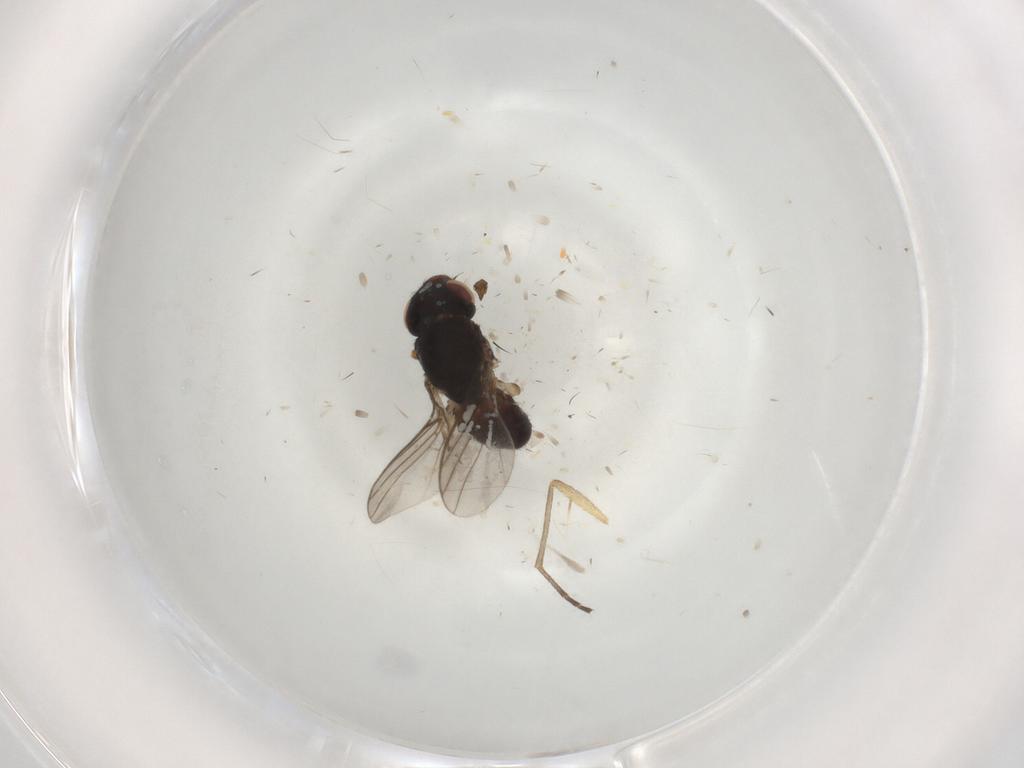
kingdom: Animalia
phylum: Arthropoda
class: Insecta
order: Diptera
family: Chloropidae
